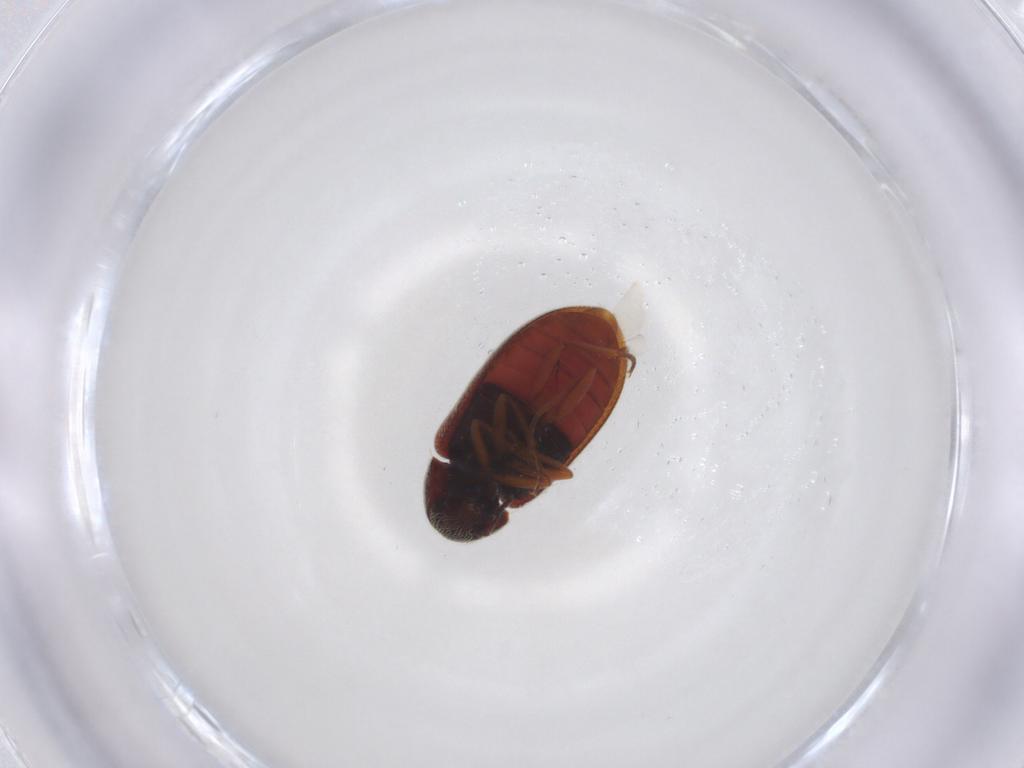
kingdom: Animalia
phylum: Arthropoda
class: Insecta
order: Coleoptera
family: Rhadalidae
